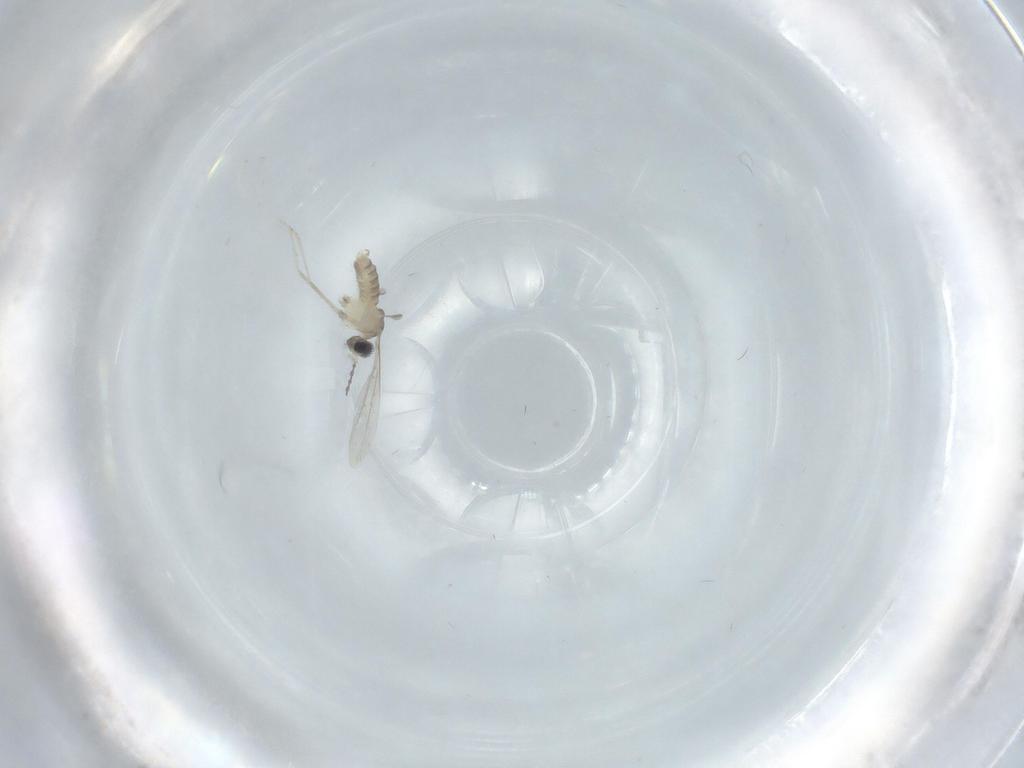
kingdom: Animalia
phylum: Arthropoda
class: Insecta
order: Diptera
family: Cecidomyiidae
